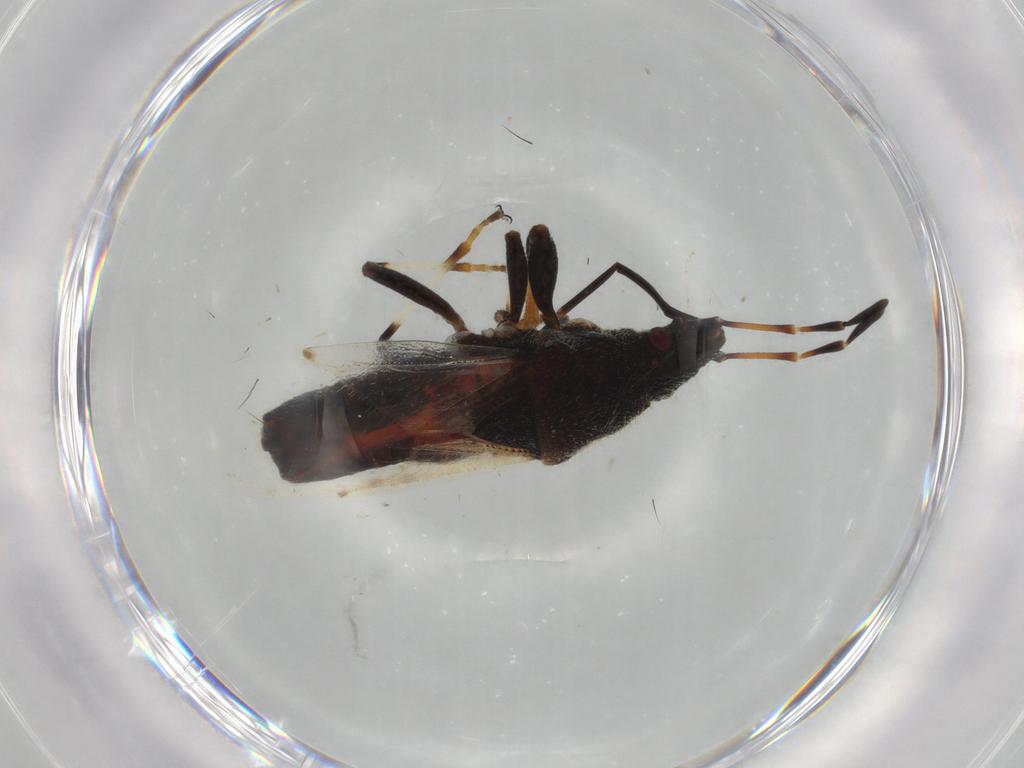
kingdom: Animalia
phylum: Arthropoda
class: Insecta
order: Hemiptera
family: Oxycarenidae
